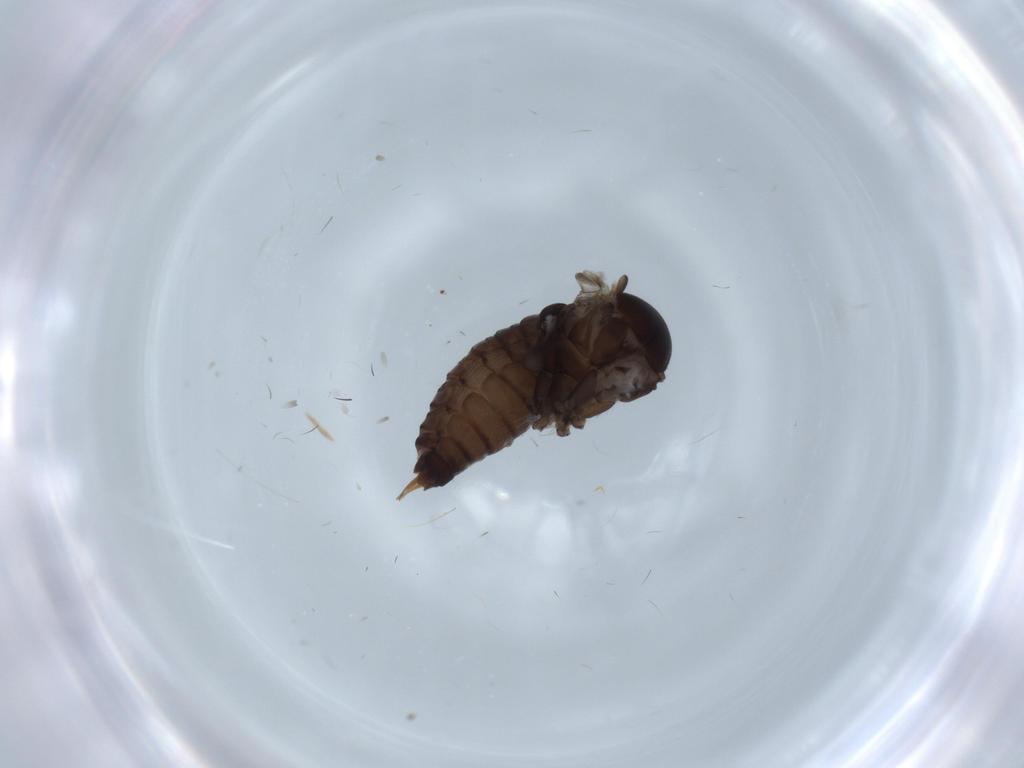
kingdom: Animalia
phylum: Arthropoda
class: Insecta
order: Diptera
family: Psychodidae
